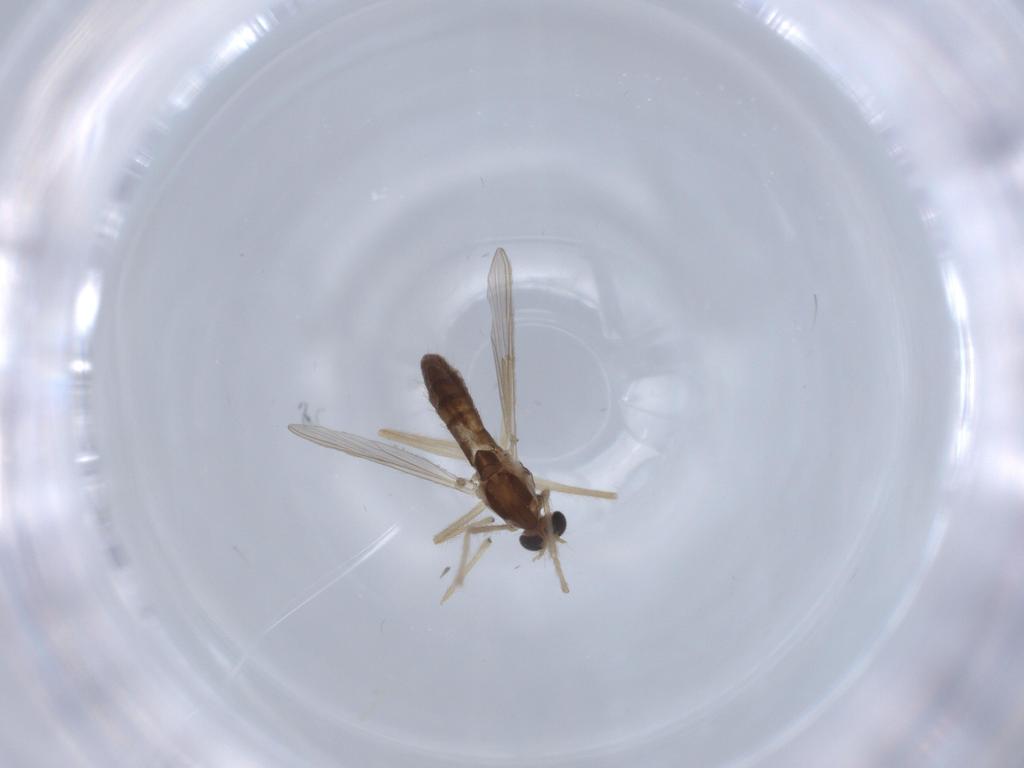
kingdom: Animalia
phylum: Arthropoda
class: Insecta
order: Diptera
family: Chironomidae
